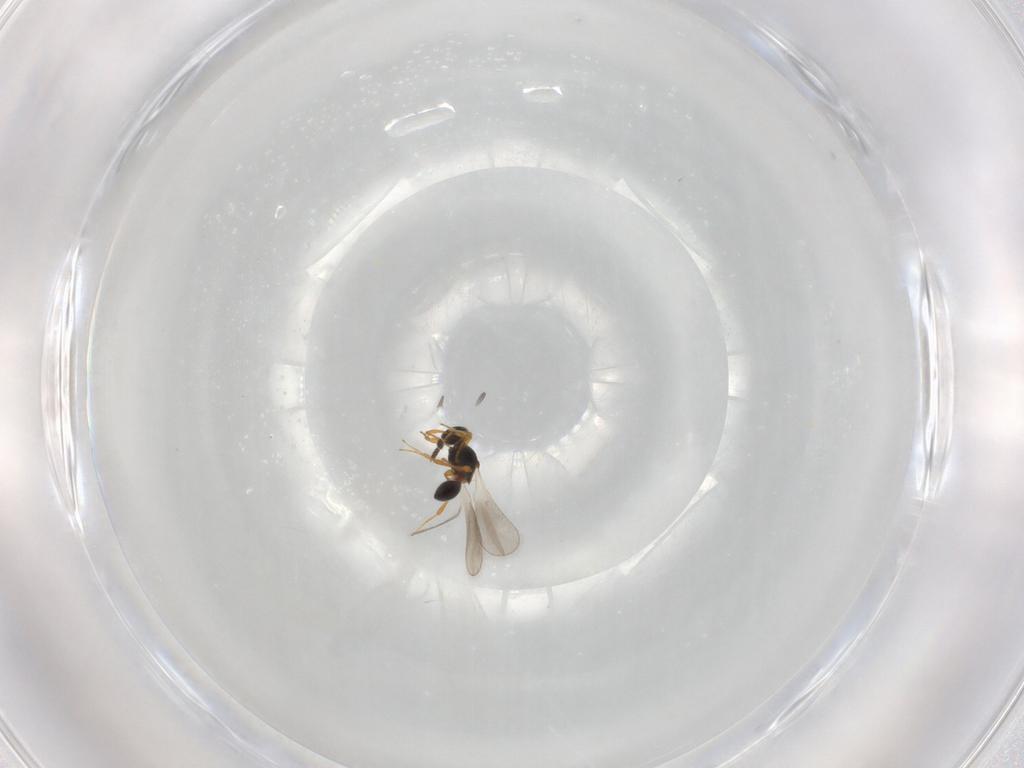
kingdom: Animalia
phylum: Arthropoda
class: Insecta
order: Hymenoptera
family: Platygastridae
